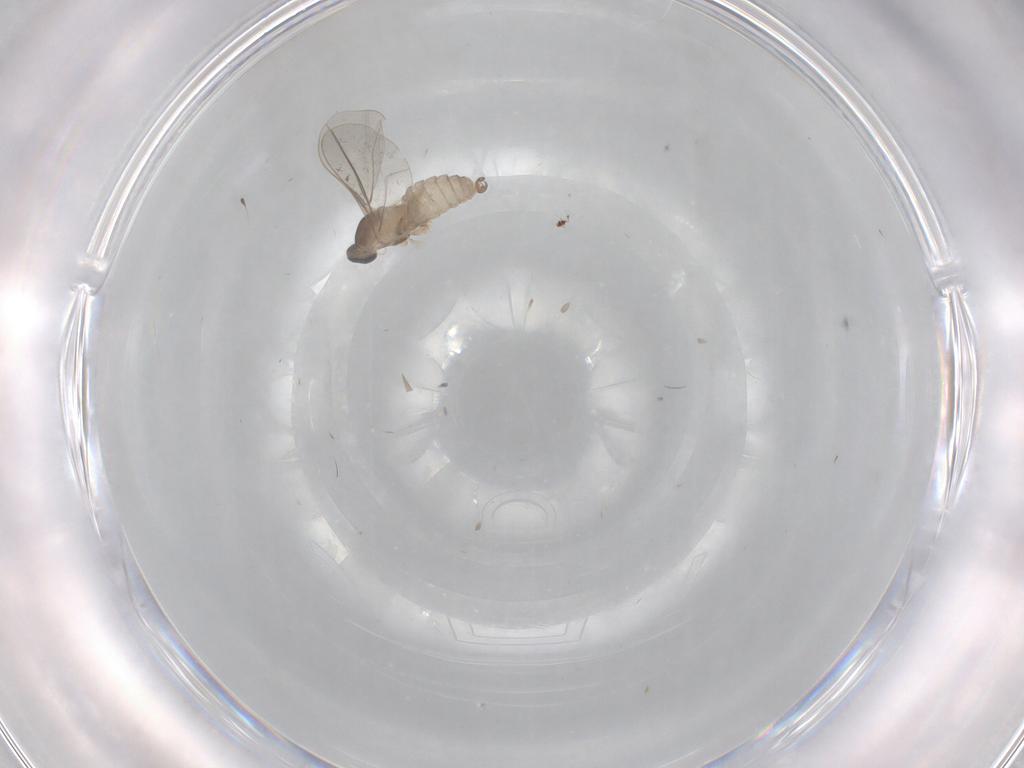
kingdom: Animalia
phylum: Arthropoda
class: Insecta
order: Diptera
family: Cecidomyiidae
